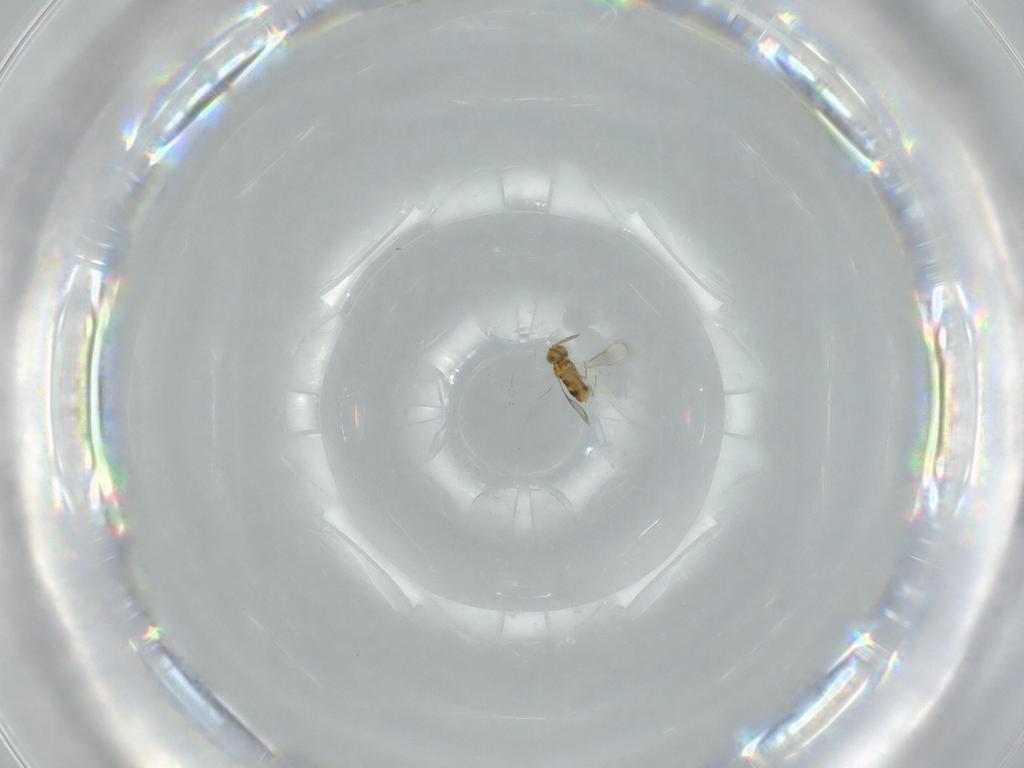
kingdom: Animalia
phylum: Arthropoda
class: Insecta
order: Hymenoptera
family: Aphelinidae
